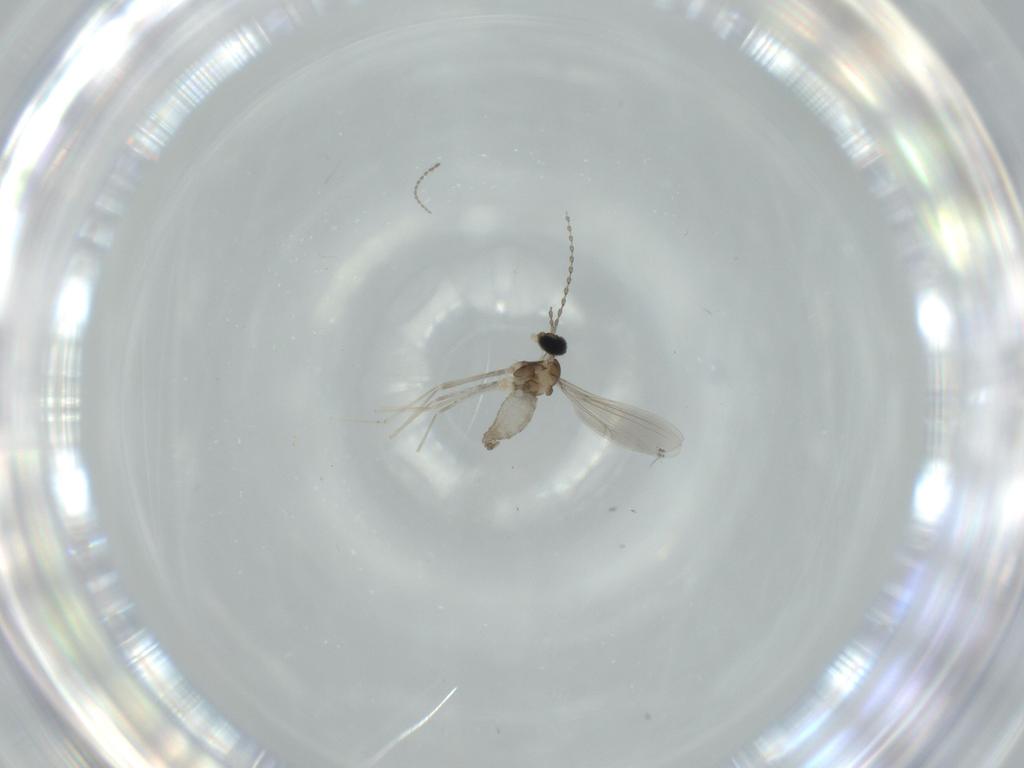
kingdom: Animalia
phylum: Arthropoda
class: Insecta
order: Diptera
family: Cecidomyiidae
